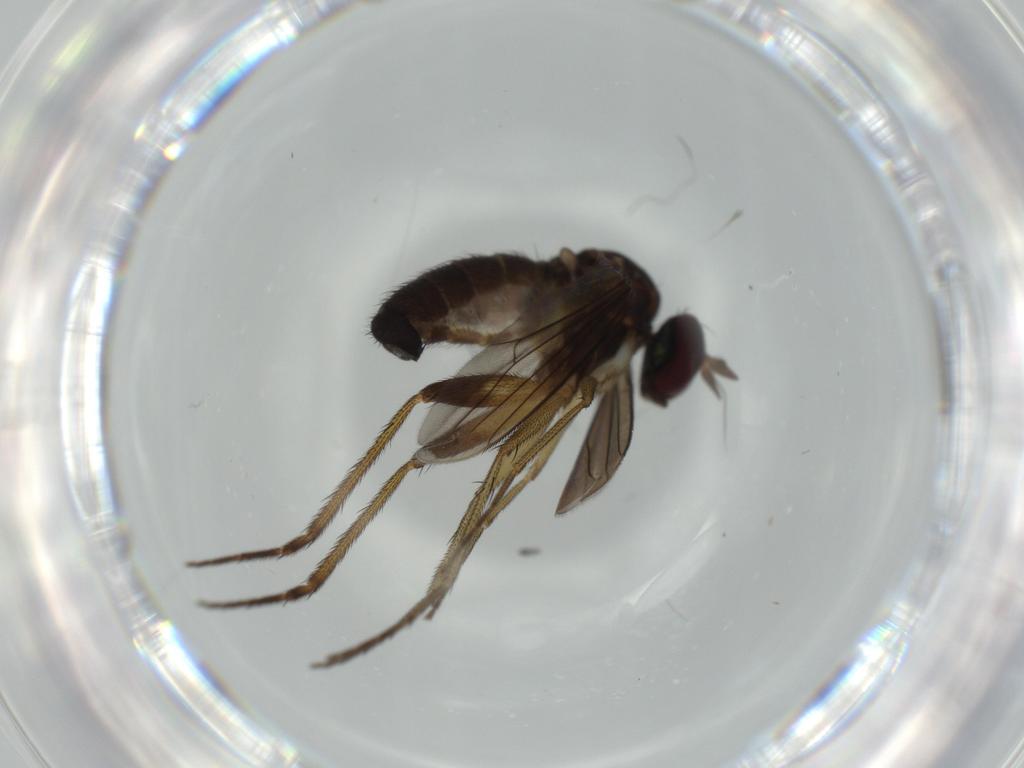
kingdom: Animalia
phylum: Arthropoda
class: Insecta
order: Diptera
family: Dolichopodidae
